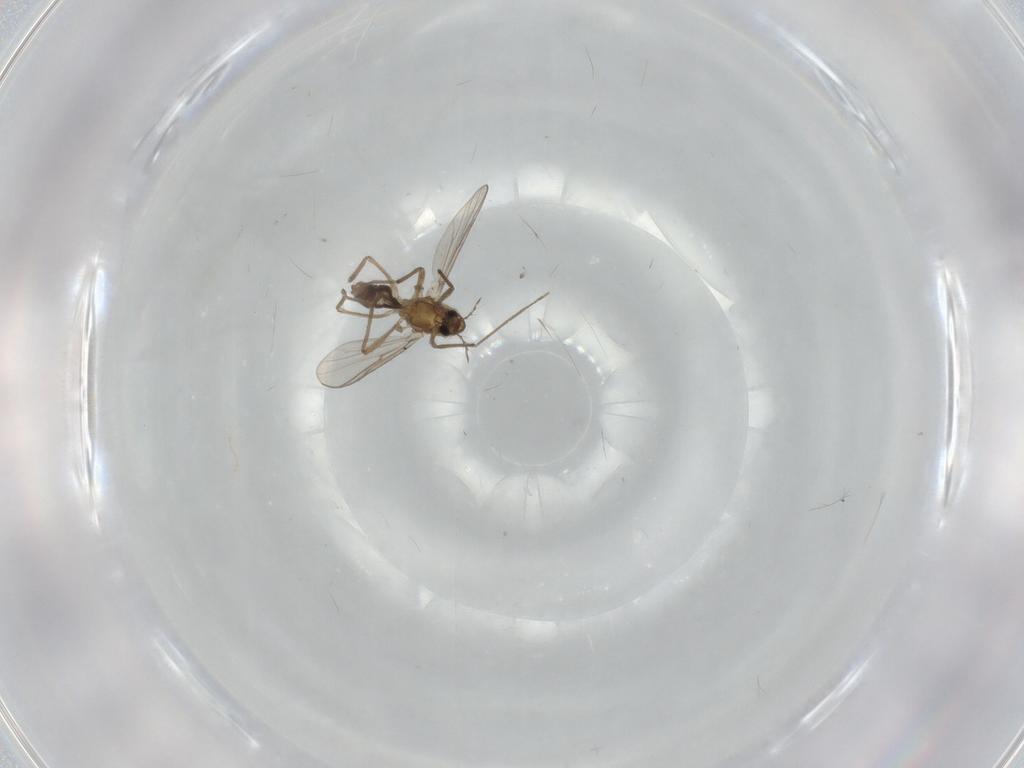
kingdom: Animalia
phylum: Arthropoda
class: Insecta
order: Diptera
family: Chironomidae
